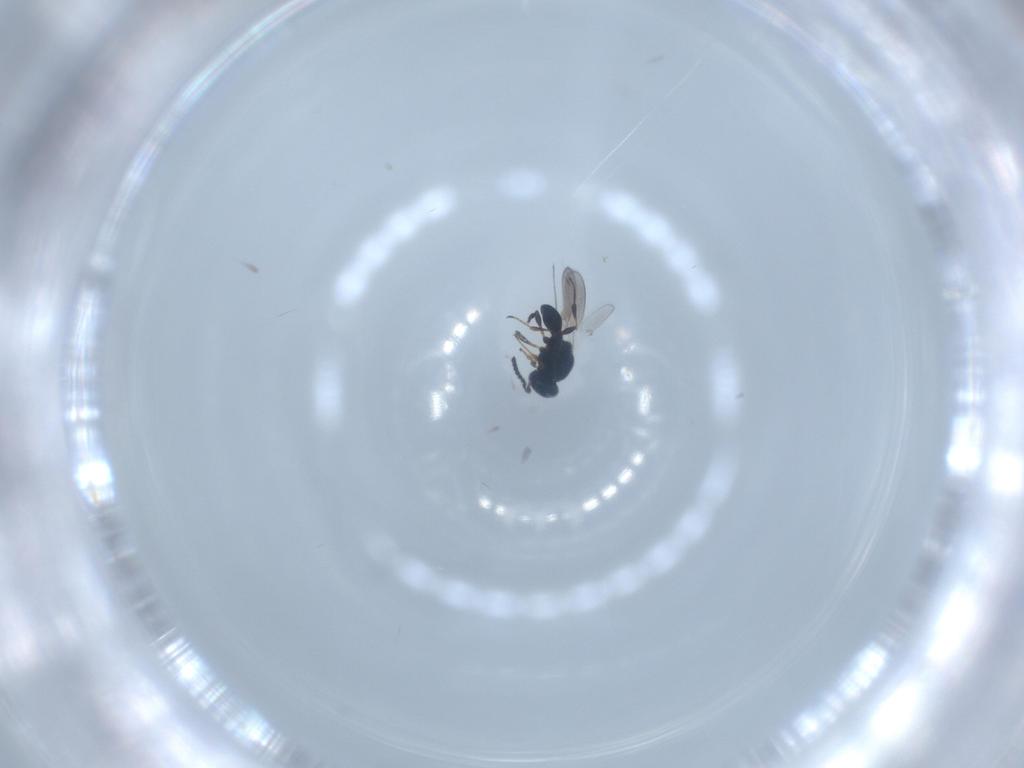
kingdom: Animalia
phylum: Arthropoda
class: Insecta
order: Hymenoptera
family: Platygastridae
